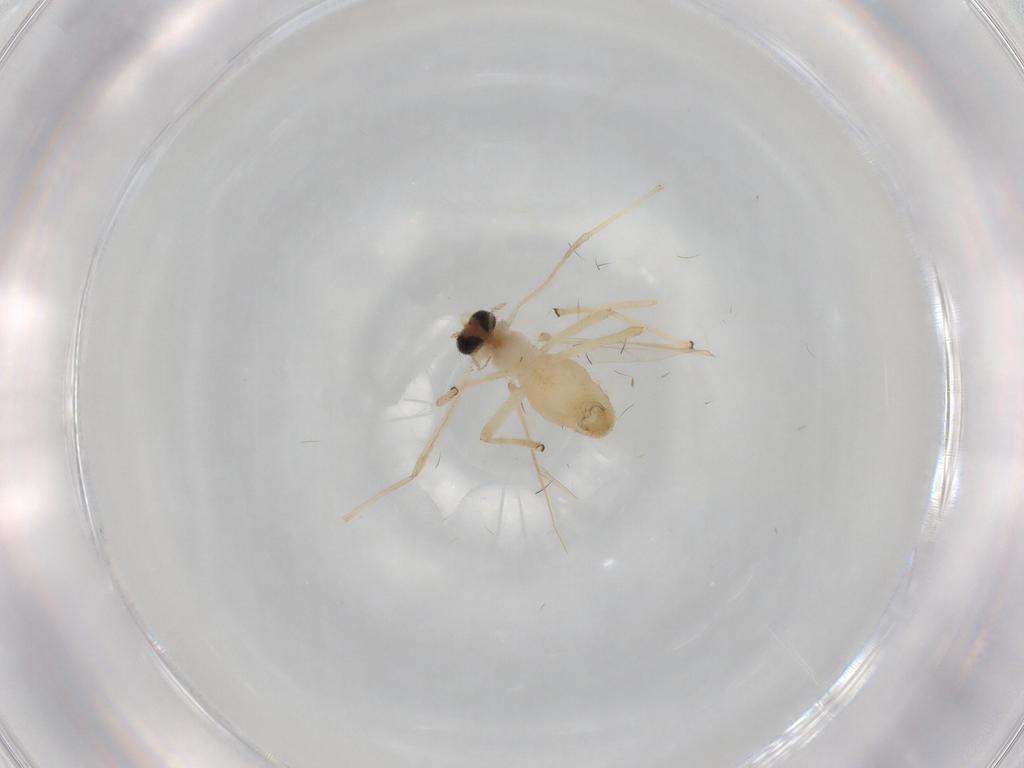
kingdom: Animalia
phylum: Arthropoda
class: Insecta
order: Diptera
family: Chironomidae
